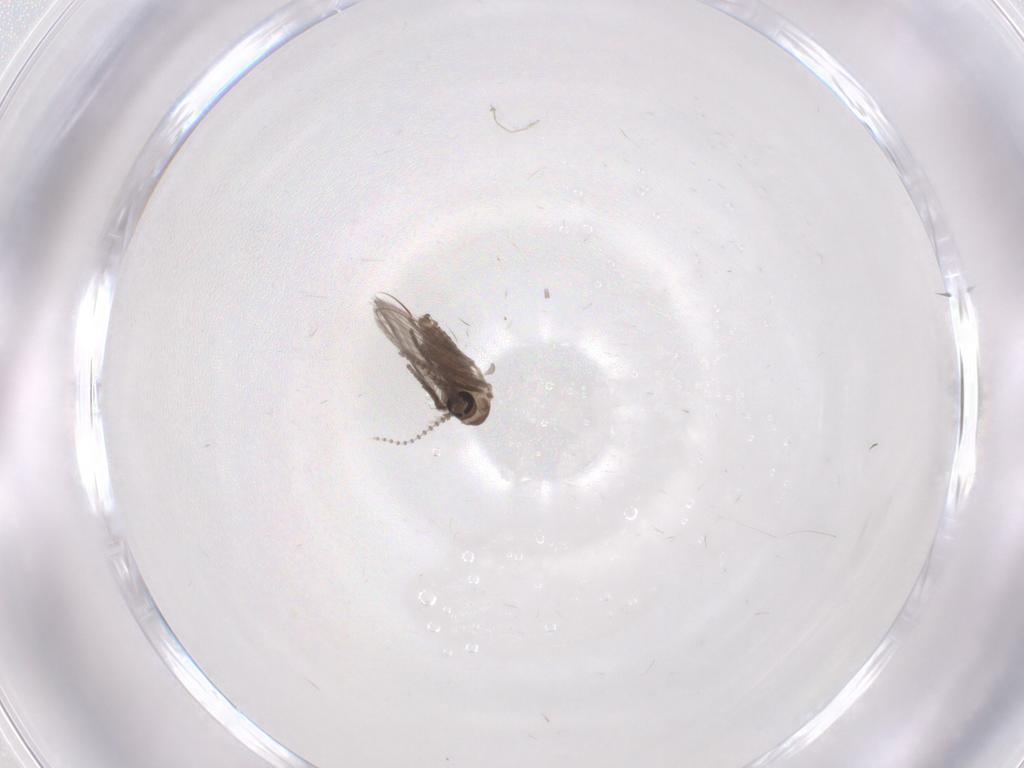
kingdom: Animalia
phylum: Arthropoda
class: Insecta
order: Diptera
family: Psychodidae
